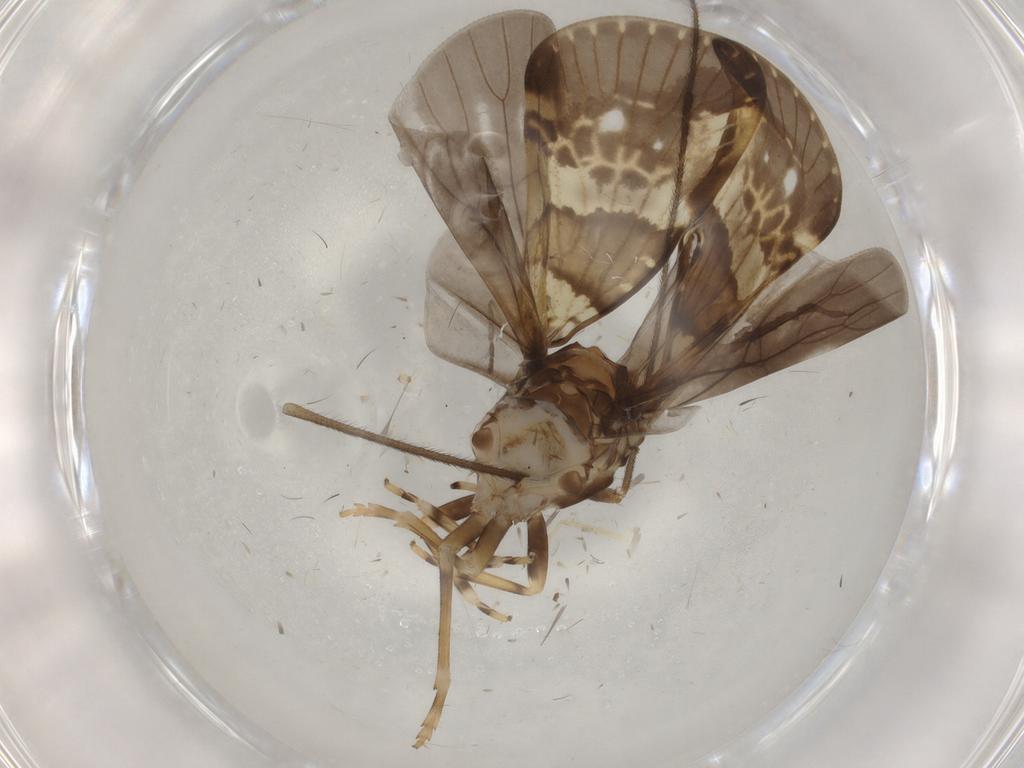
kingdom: Animalia
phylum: Arthropoda
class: Insecta
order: Hemiptera
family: Cixiidae
